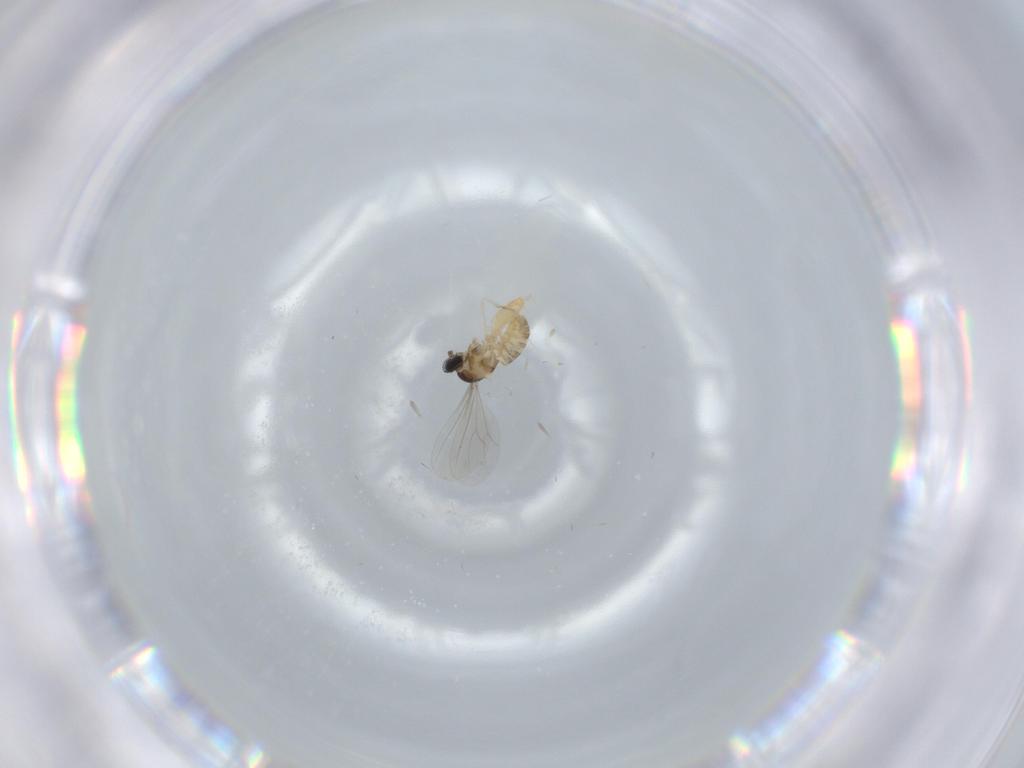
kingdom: Animalia
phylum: Arthropoda
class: Insecta
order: Diptera
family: Cecidomyiidae
